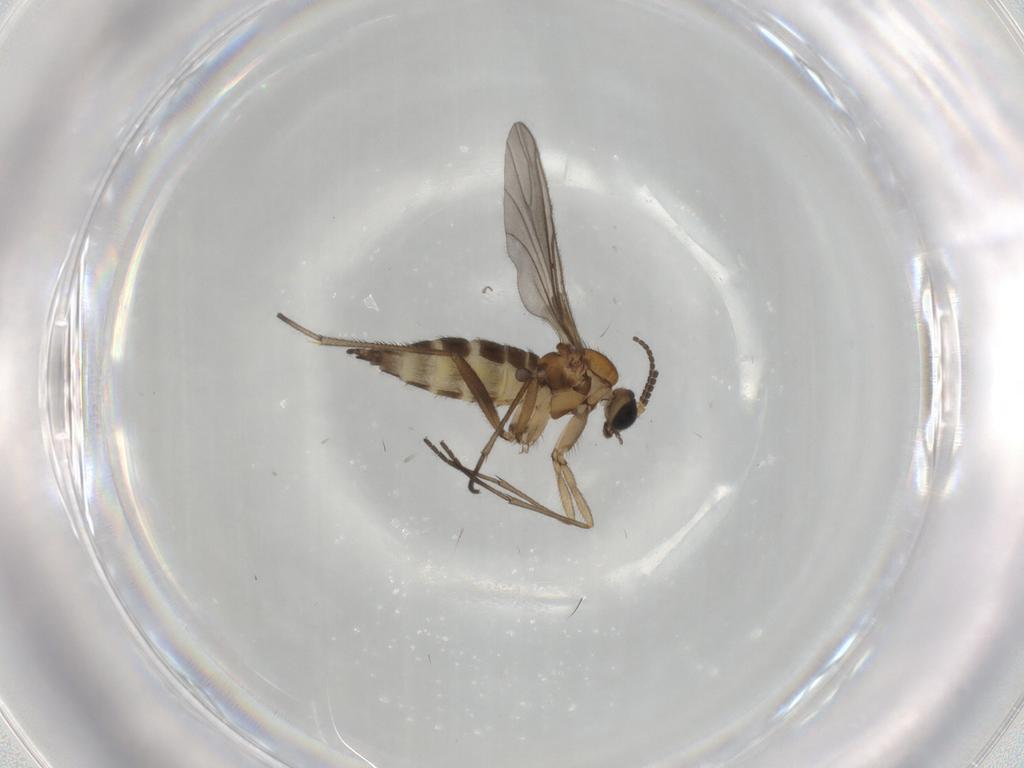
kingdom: Animalia
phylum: Arthropoda
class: Insecta
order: Diptera
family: Sciaridae
